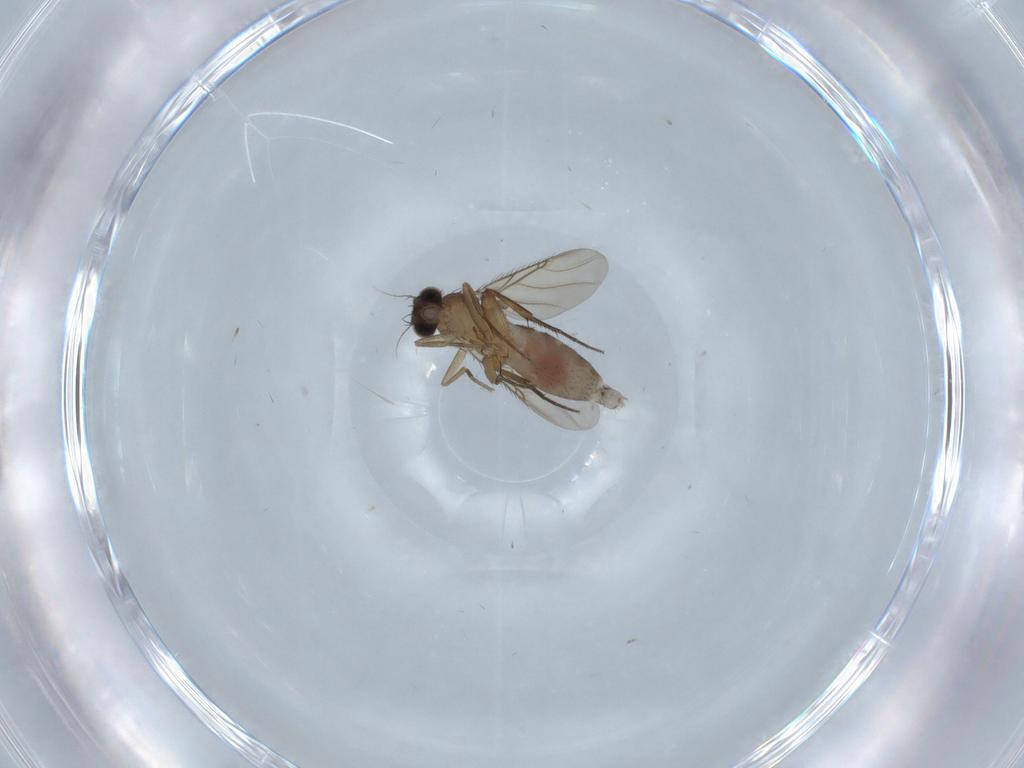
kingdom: Animalia
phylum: Arthropoda
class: Insecta
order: Diptera
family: Phoridae
